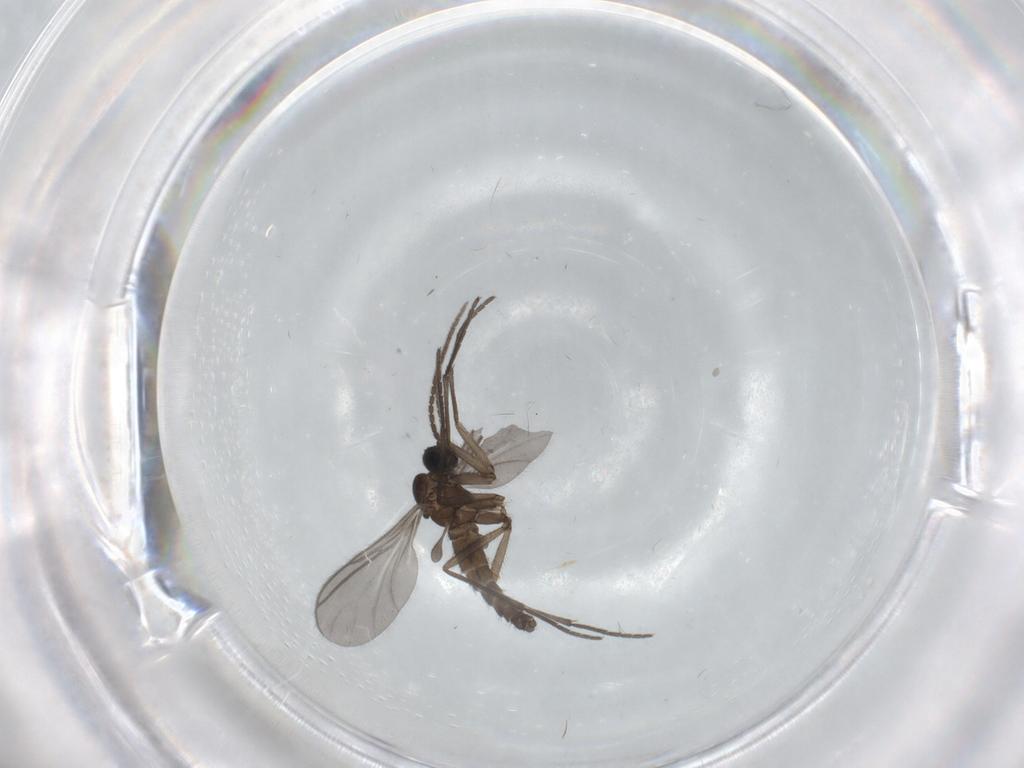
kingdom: Animalia
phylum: Arthropoda
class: Insecta
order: Diptera
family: Sciaridae
